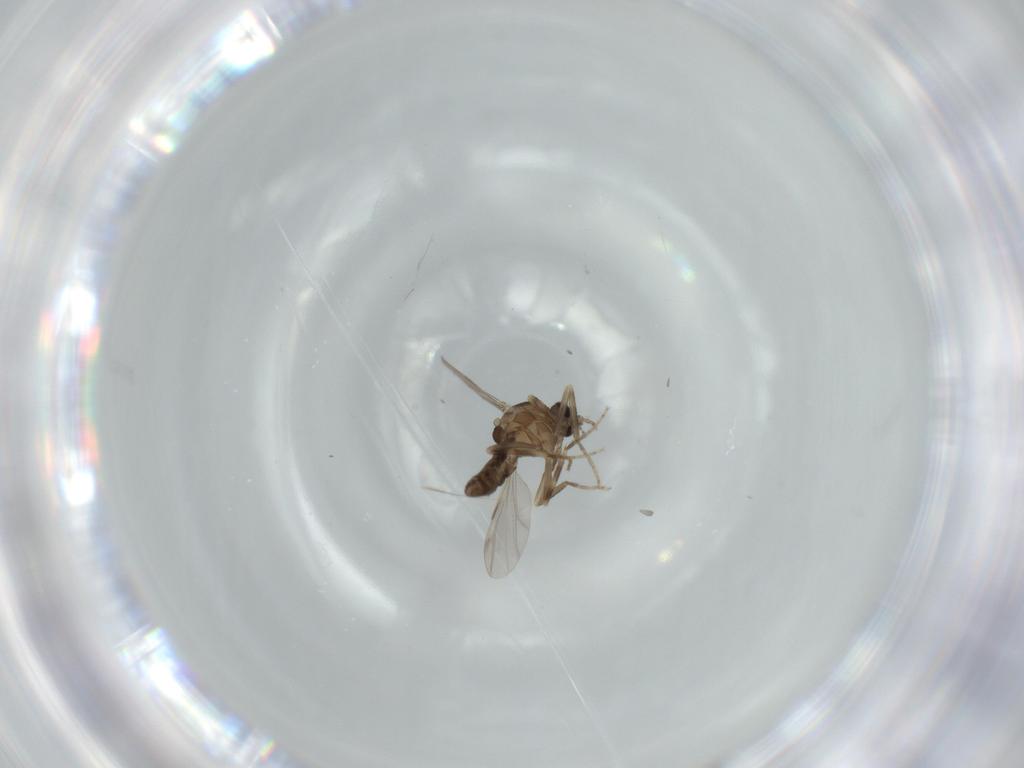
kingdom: Animalia
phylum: Arthropoda
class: Insecta
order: Diptera
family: Ceratopogonidae
